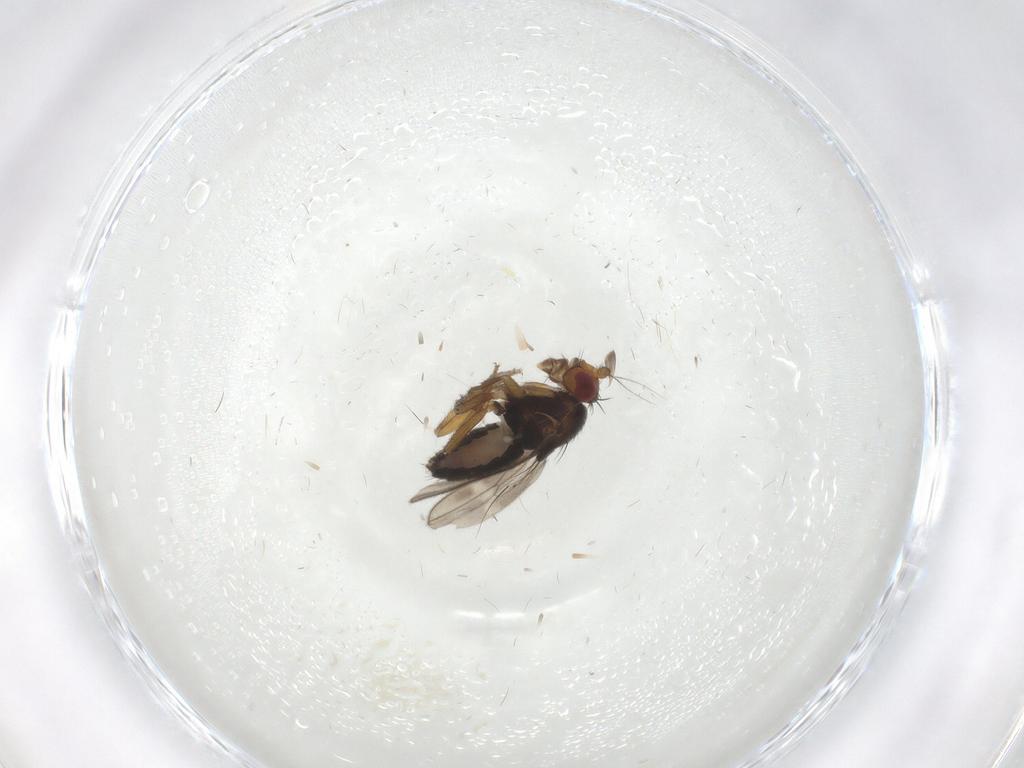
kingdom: Animalia
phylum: Arthropoda
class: Insecta
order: Diptera
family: Sphaeroceridae
